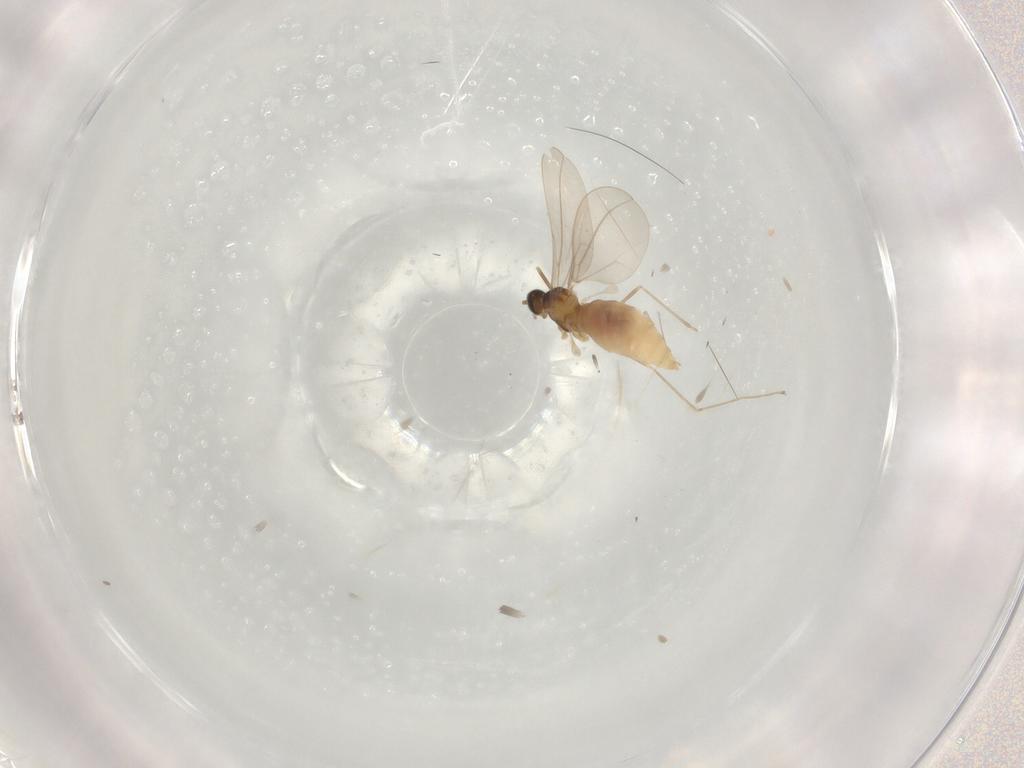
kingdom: Animalia
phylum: Arthropoda
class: Insecta
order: Diptera
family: Cecidomyiidae
